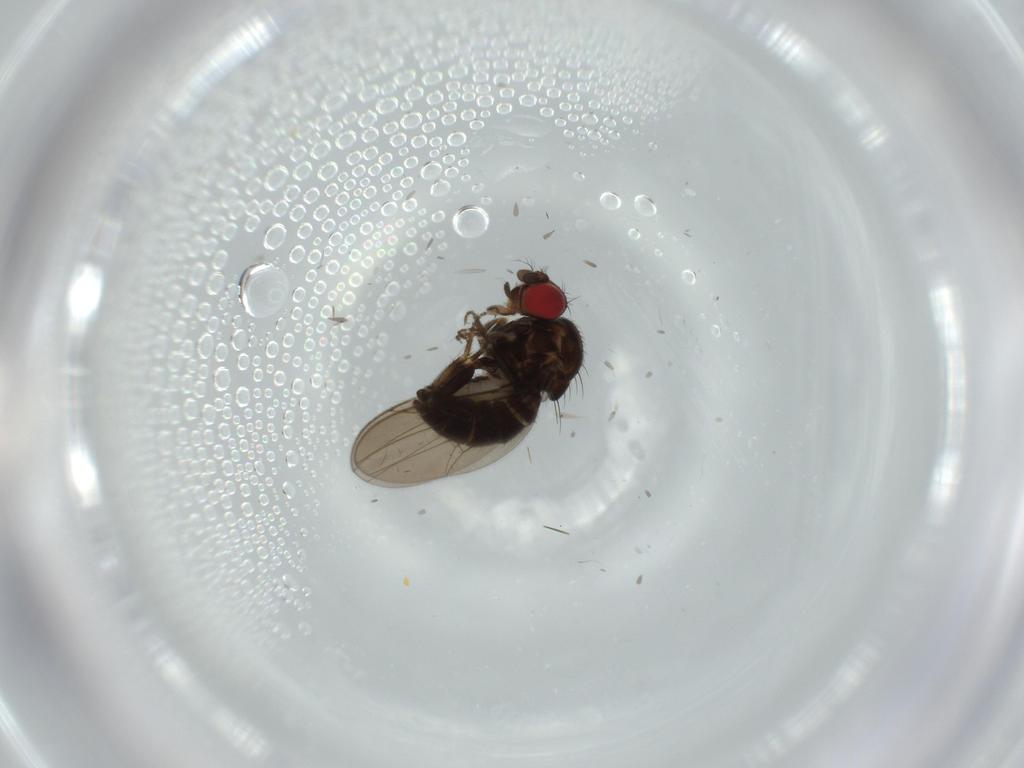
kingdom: Animalia
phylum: Arthropoda
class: Insecta
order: Diptera
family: Drosophilidae
